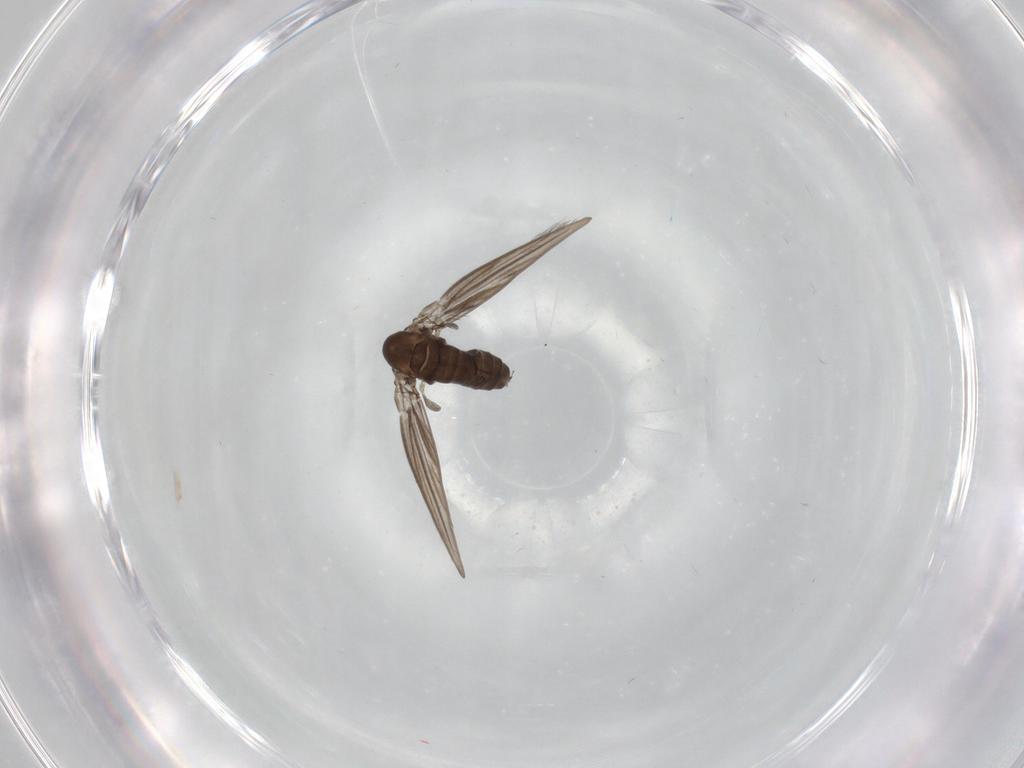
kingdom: Animalia
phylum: Arthropoda
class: Insecta
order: Diptera
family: Psychodidae
